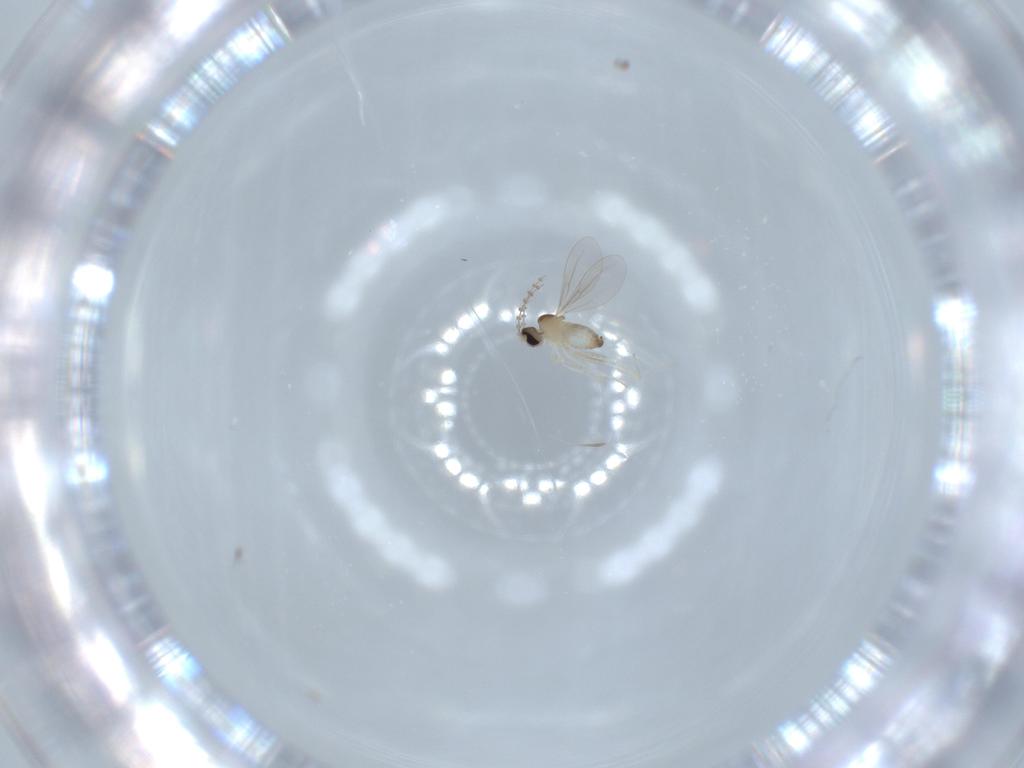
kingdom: Animalia
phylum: Arthropoda
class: Insecta
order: Diptera
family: Cecidomyiidae
